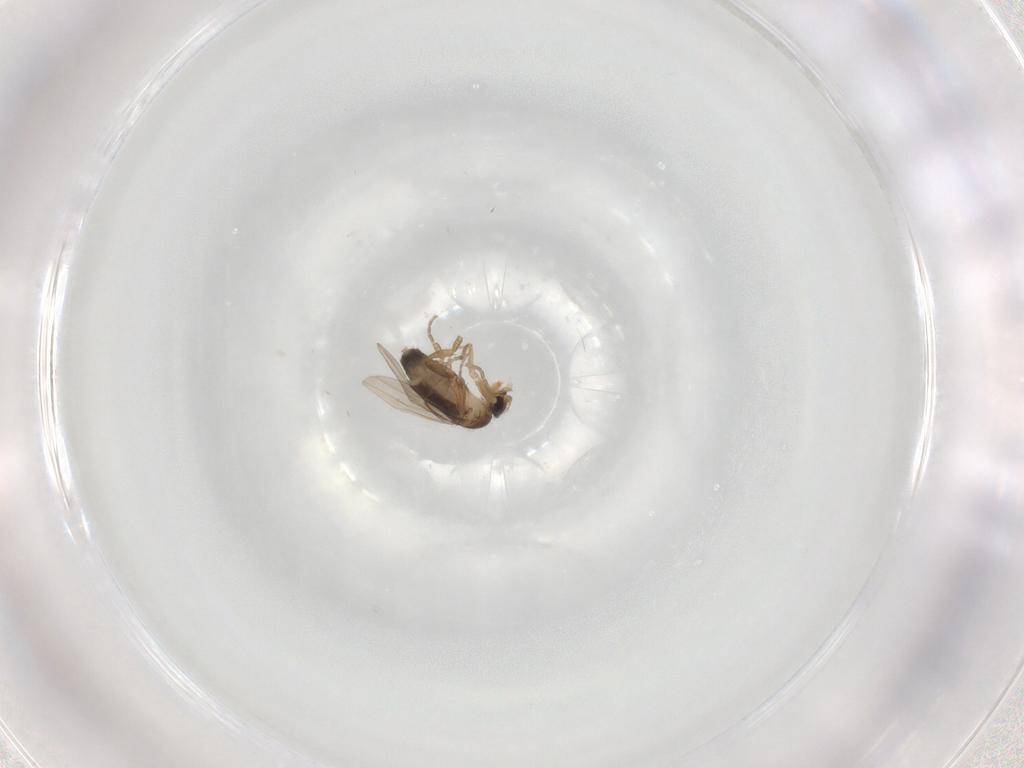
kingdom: Animalia
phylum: Arthropoda
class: Insecta
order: Diptera
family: Phoridae
